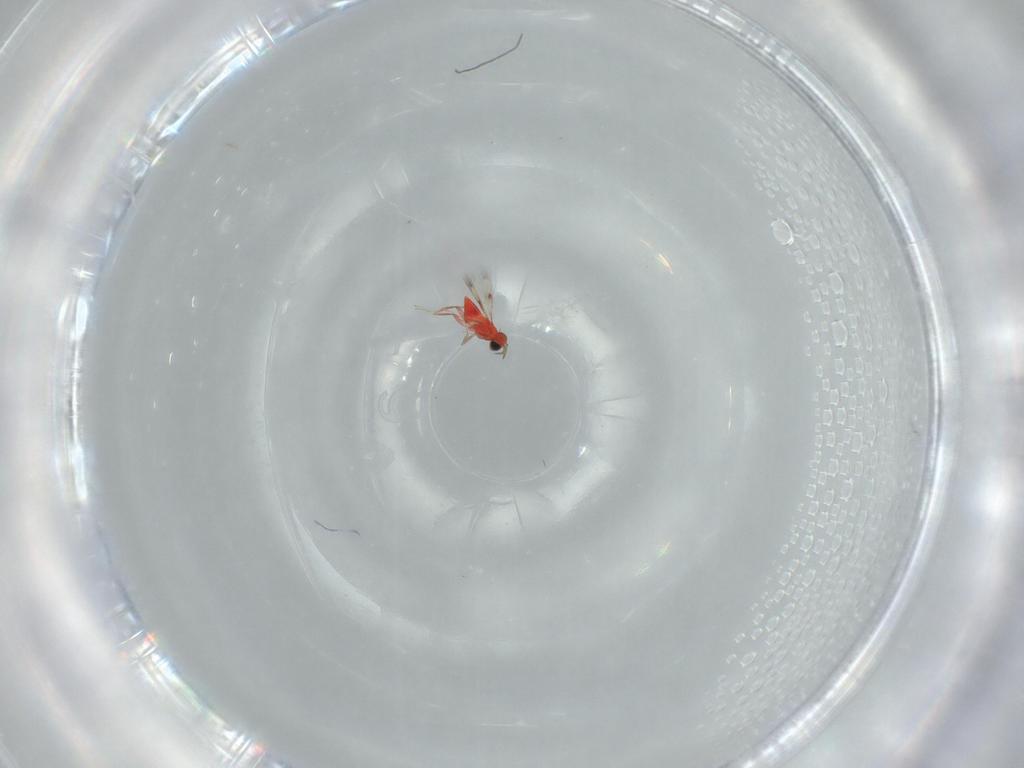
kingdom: Animalia
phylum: Arthropoda
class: Insecta
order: Hymenoptera
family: Trichogrammatidae
